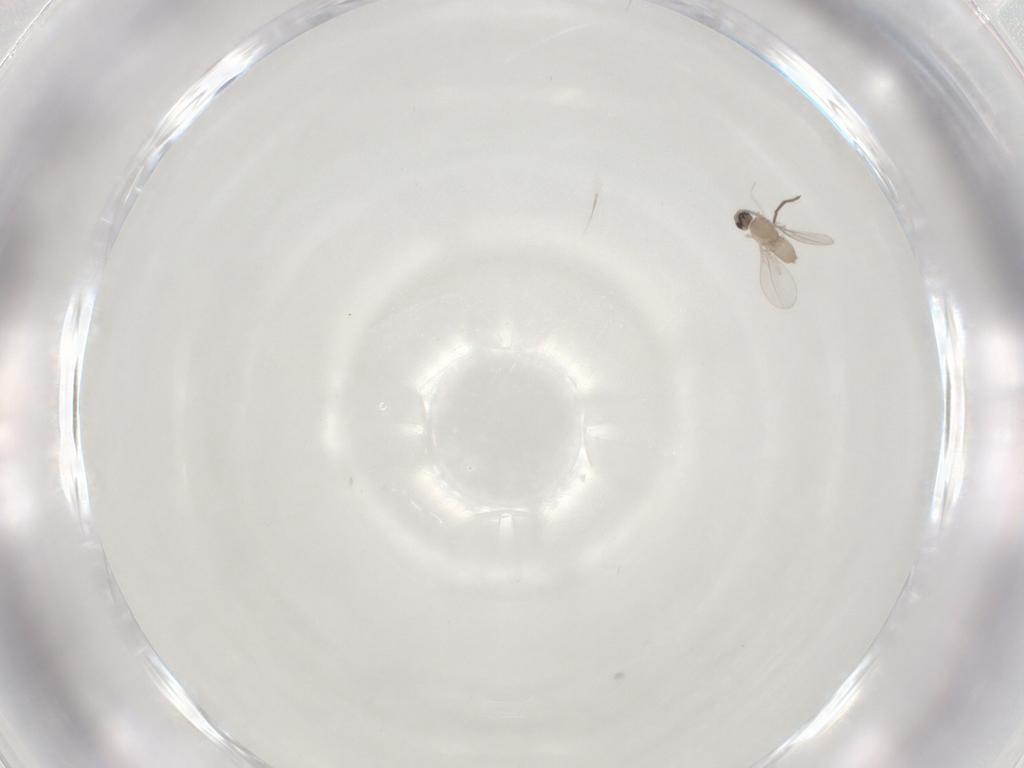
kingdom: Animalia
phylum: Arthropoda
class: Insecta
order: Diptera
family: Cecidomyiidae
